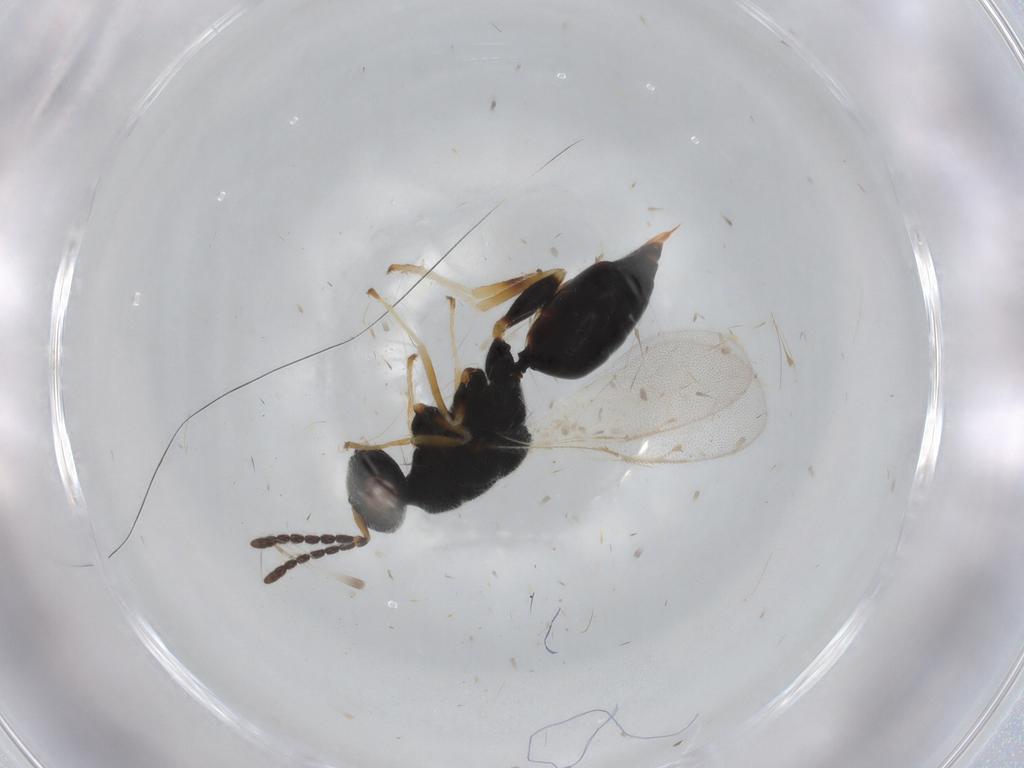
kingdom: Animalia
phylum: Arthropoda
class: Insecta
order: Hymenoptera
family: Eurytomidae
